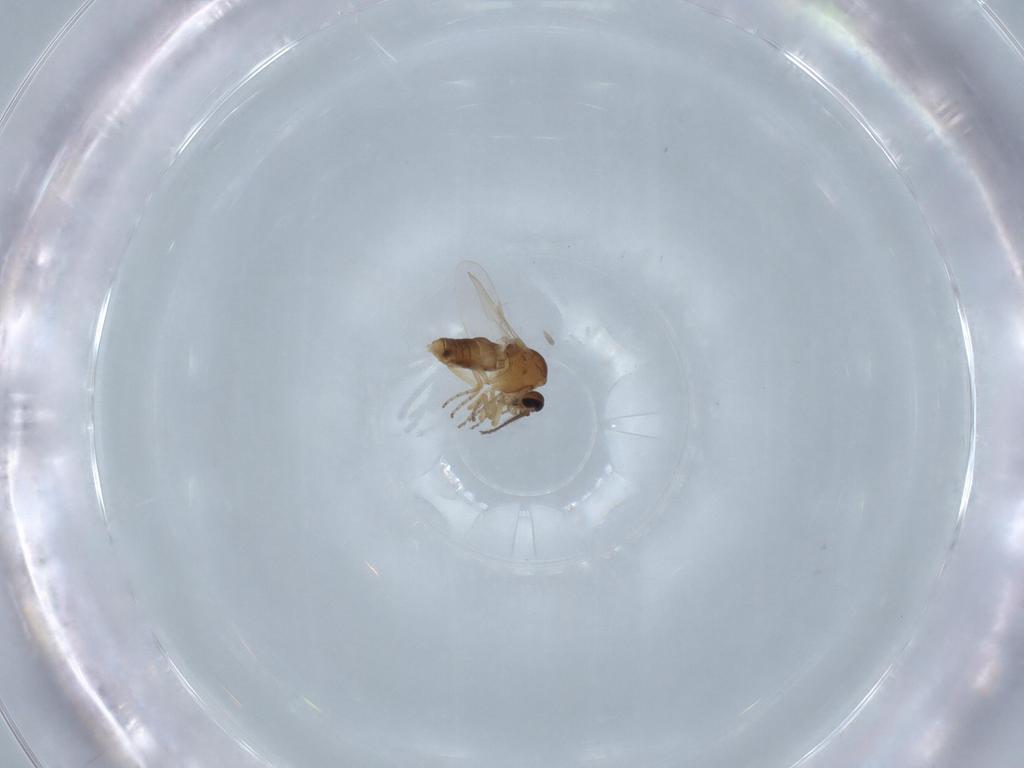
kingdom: Animalia
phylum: Arthropoda
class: Insecta
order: Diptera
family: Ceratopogonidae
